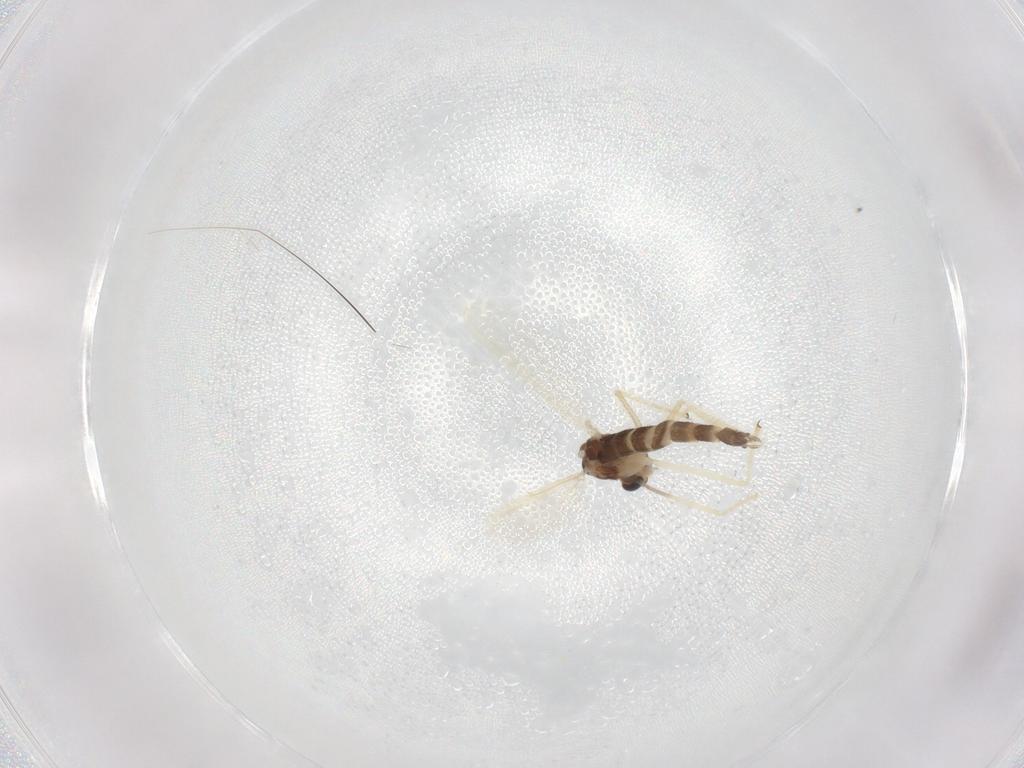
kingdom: Animalia
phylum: Arthropoda
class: Insecta
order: Diptera
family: Chironomidae
